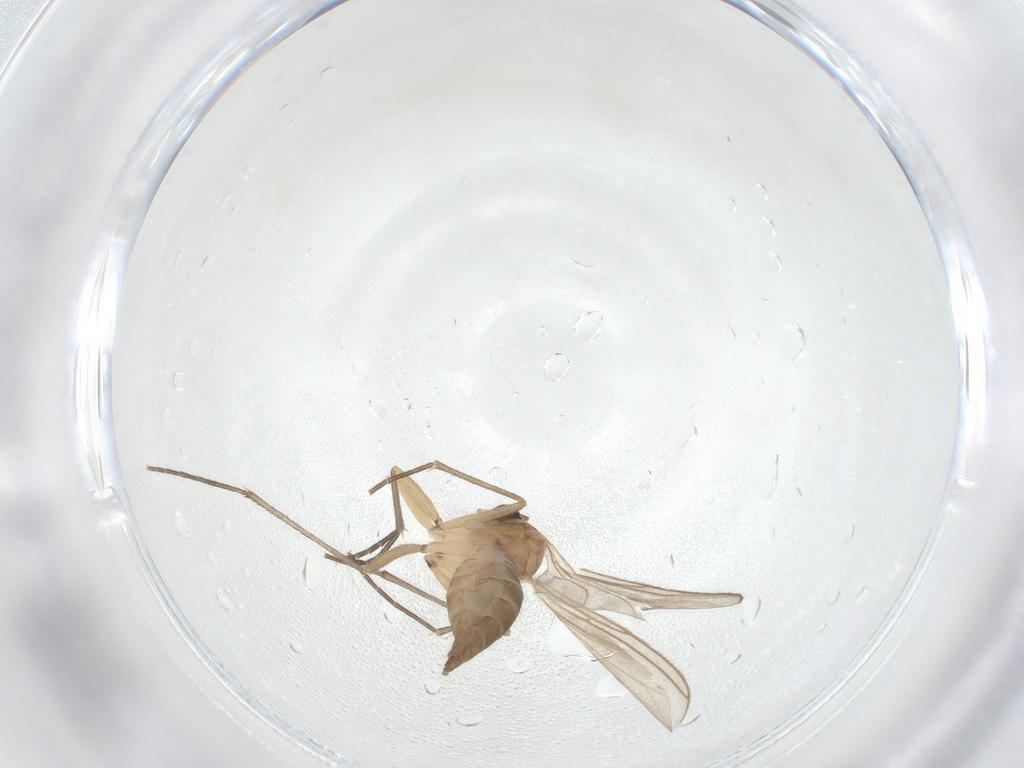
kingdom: Animalia
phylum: Arthropoda
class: Insecta
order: Diptera
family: Sciaridae
